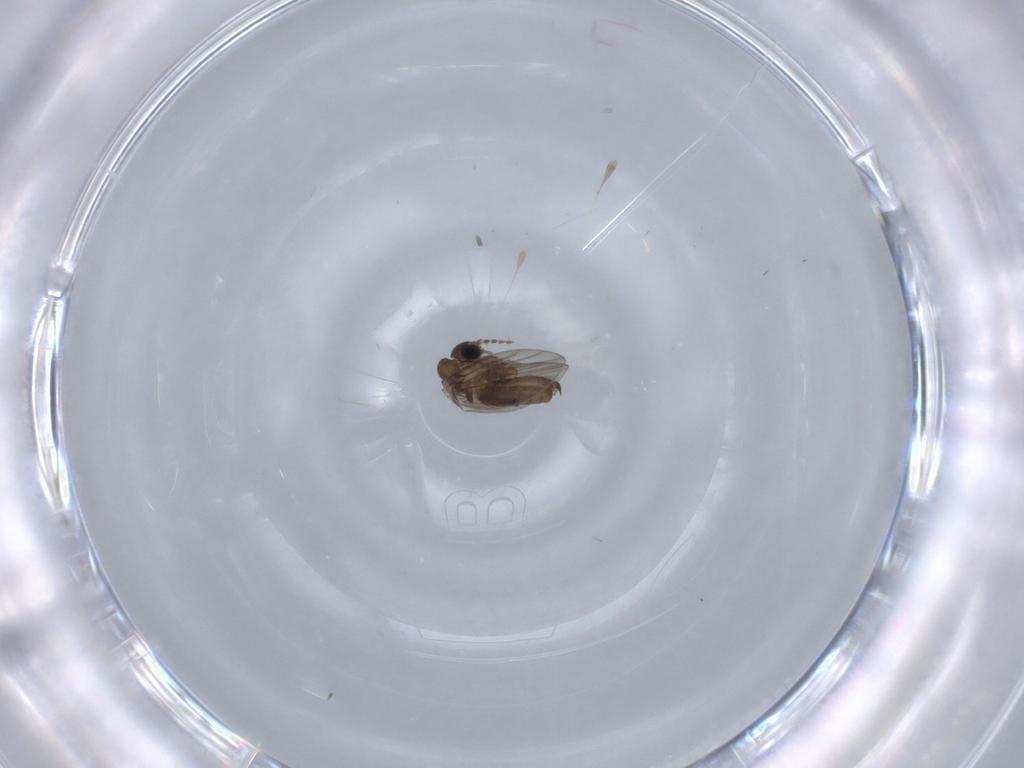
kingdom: Animalia
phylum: Arthropoda
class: Insecta
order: Diptera
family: Psychodidae
